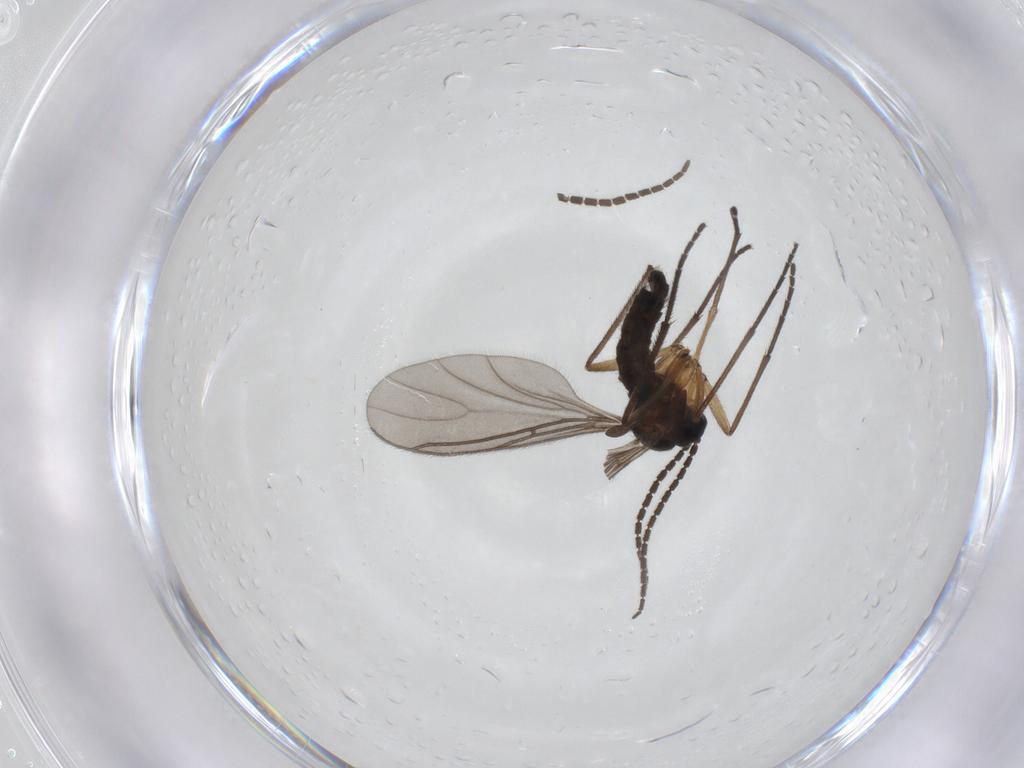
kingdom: Animalia
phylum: Arthropoda
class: Insecta
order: Diptera
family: Sciaridae
